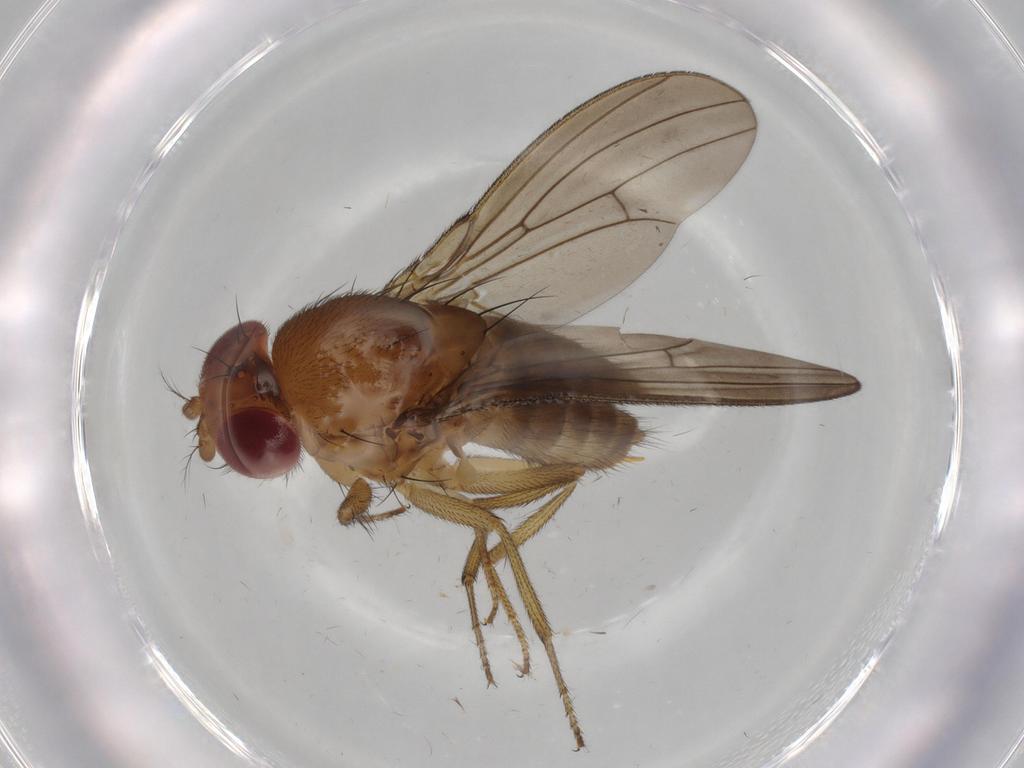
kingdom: Animalia
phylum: Arthropoda
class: Insecta
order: Diptera
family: Drosophilidae
